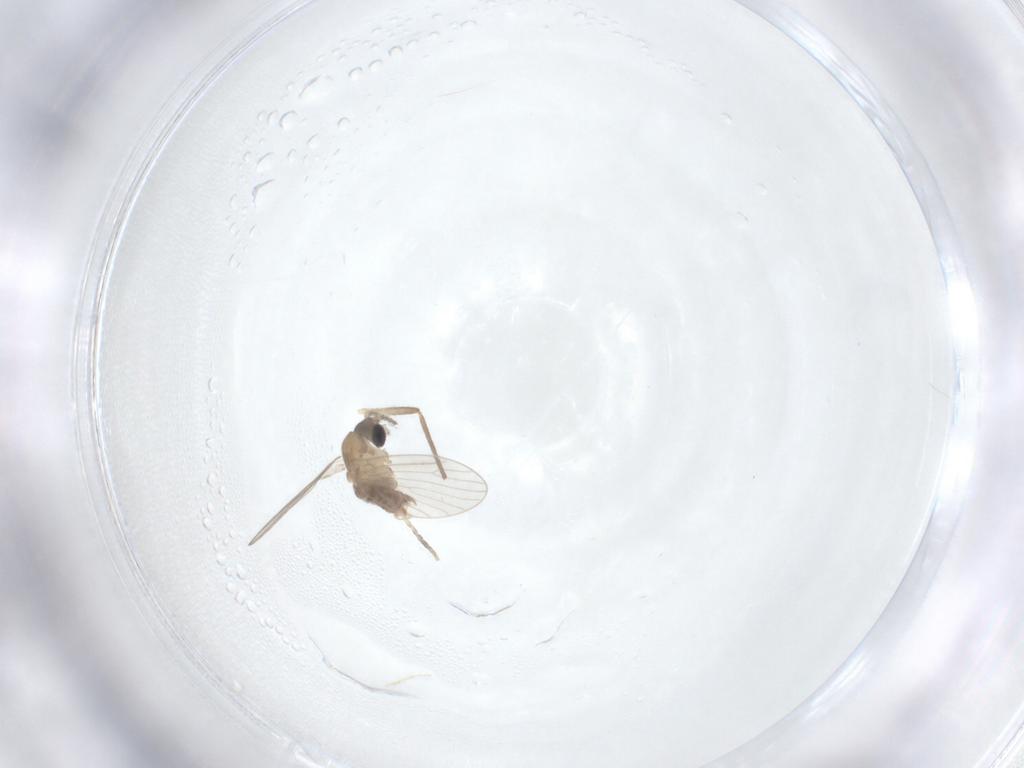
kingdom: Animalia
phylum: Arthropoda
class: Insecta
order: Diptera
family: Chironomidae
